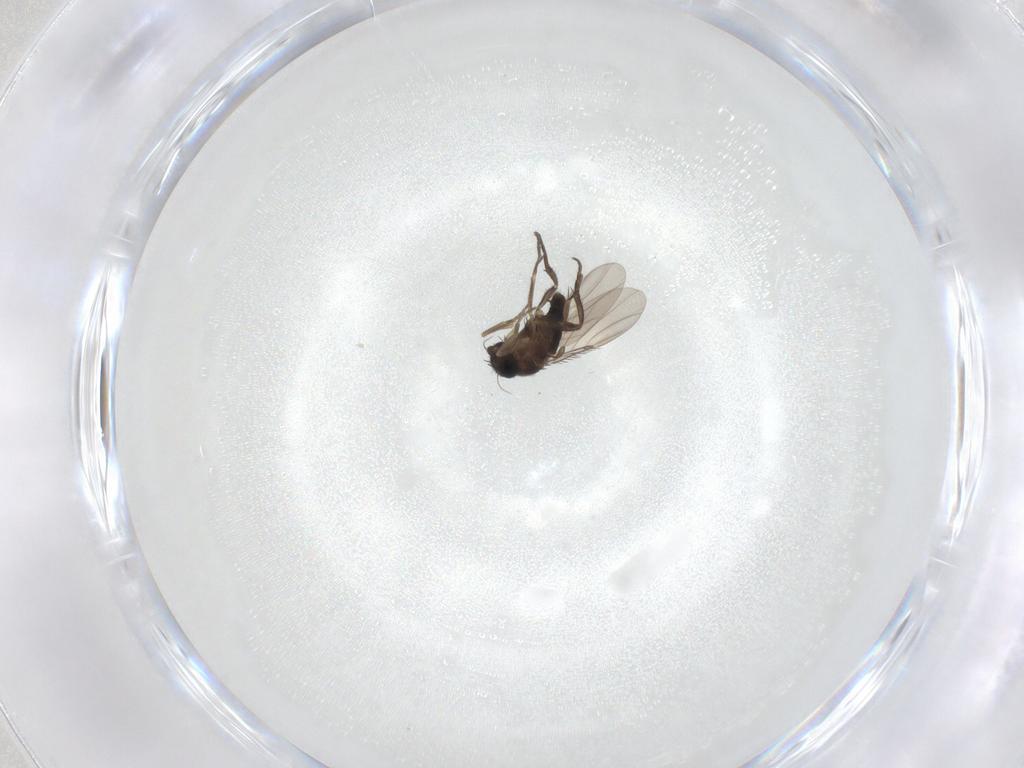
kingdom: Animalia
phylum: Arthropoda
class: Insecta
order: Diptera
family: Phoridae
